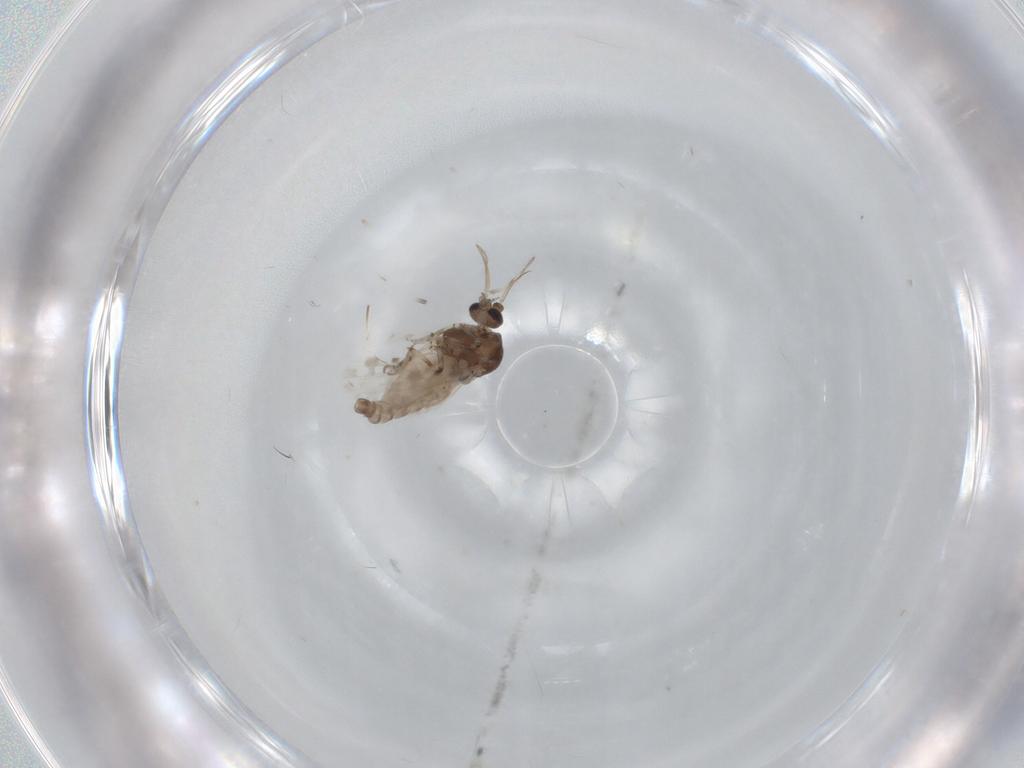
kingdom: Animalia
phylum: Arthropoda
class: Insecta
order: Diptera
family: Ceratopogonidae
